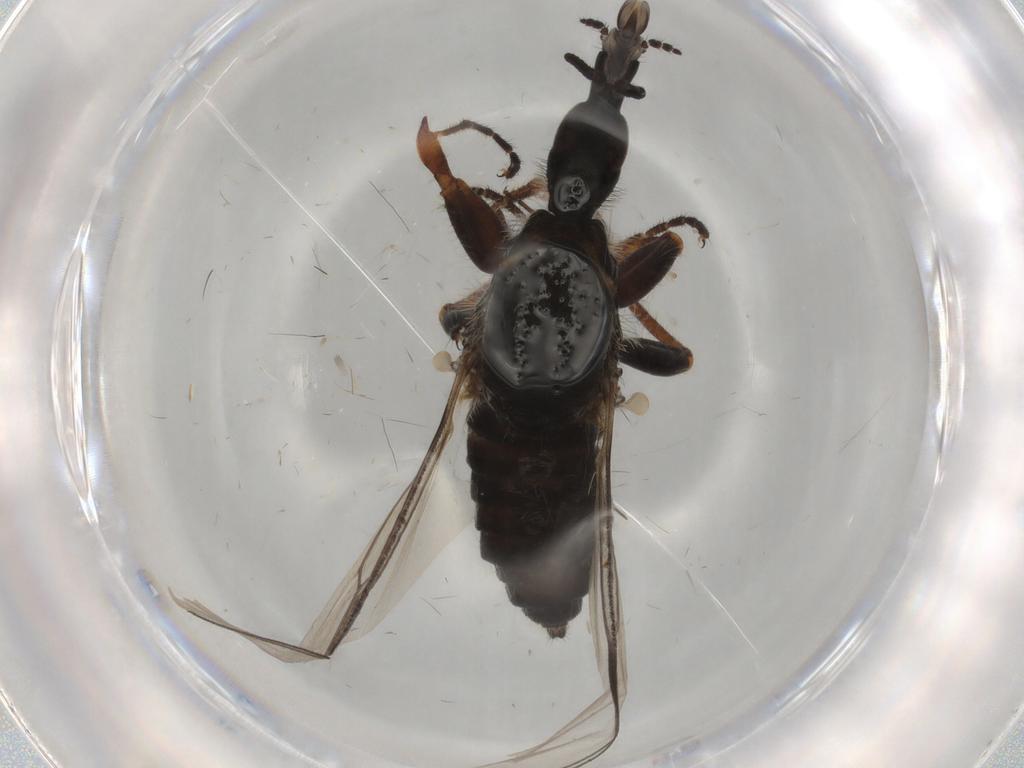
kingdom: Animalia
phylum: Arthropoda
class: Insecta
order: Diptera
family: Bibionidae
